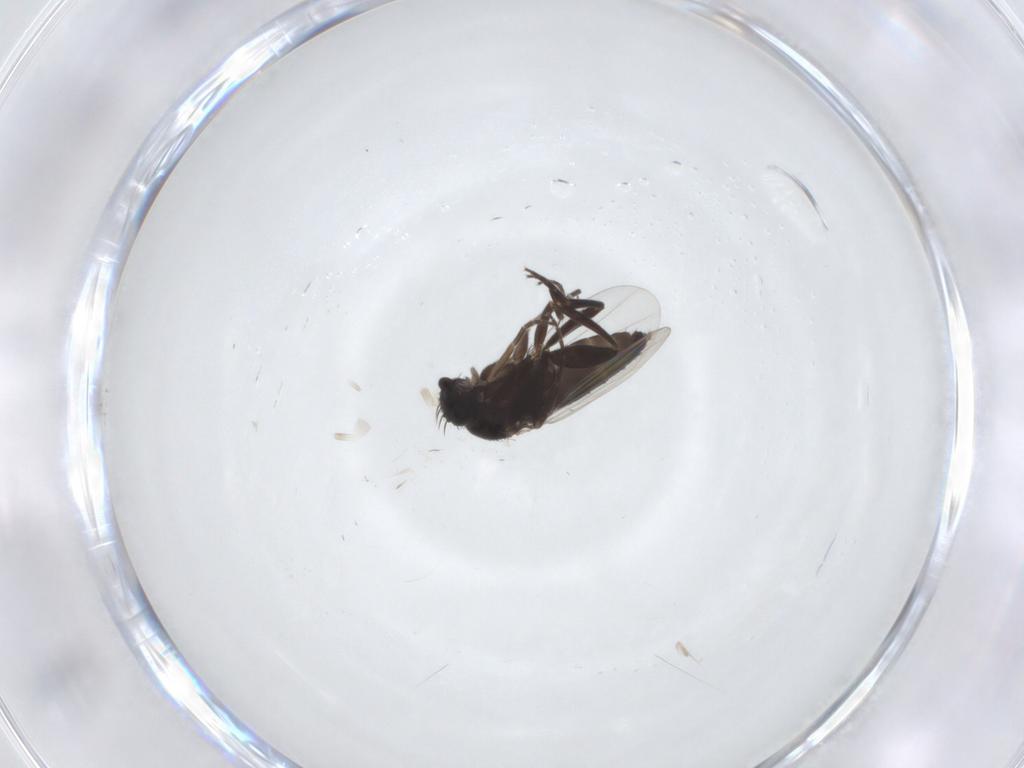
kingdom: Animalia
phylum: Arthropoda
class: Insecta
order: Diptera
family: Phoridae
